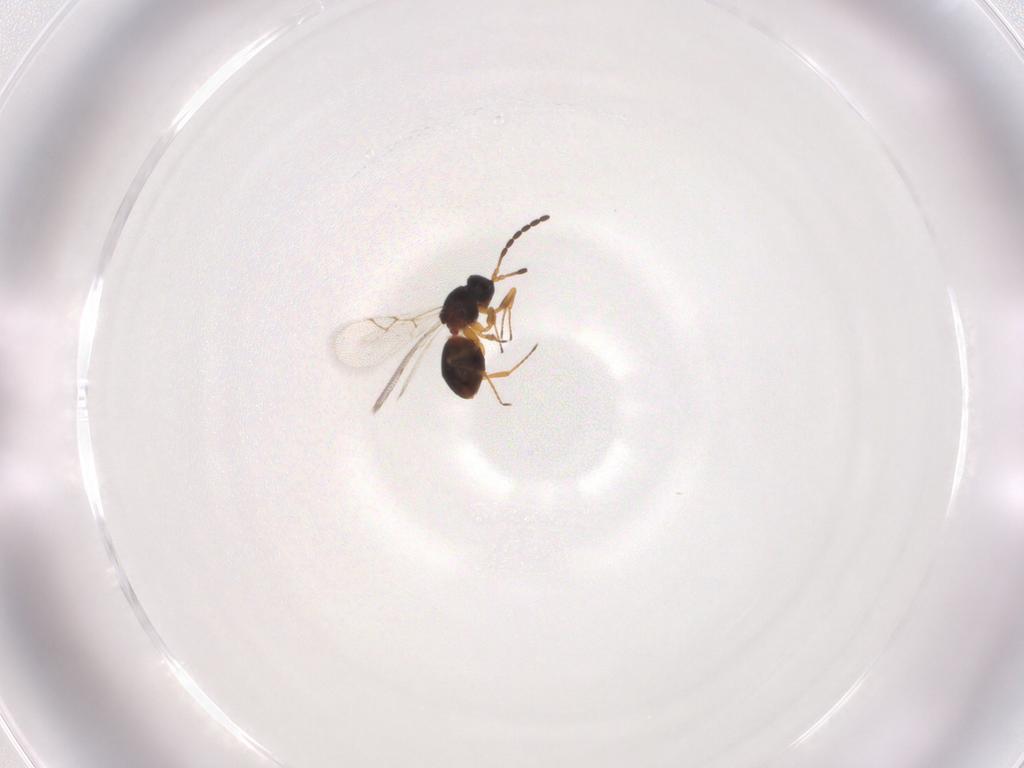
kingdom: Animalia
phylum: Arthropoda
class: Insecta
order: Hymenoptera
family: Figitidae
